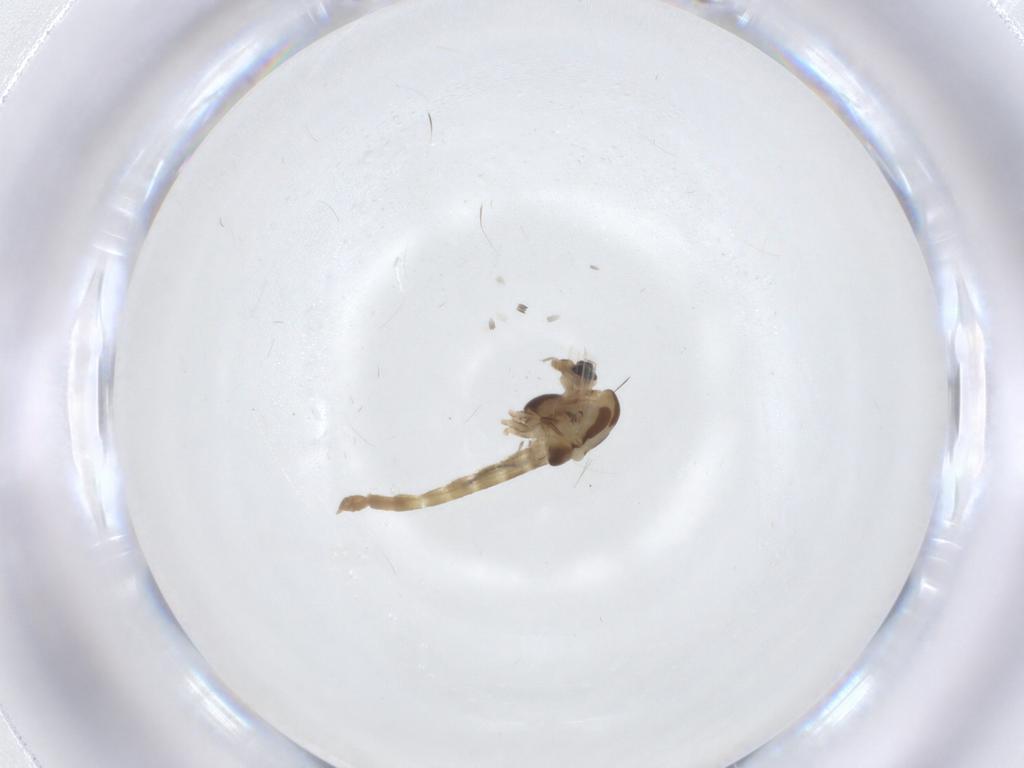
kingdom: Animalia
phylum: Arthropoda
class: Insecta
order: Diptera
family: Chironomidae
